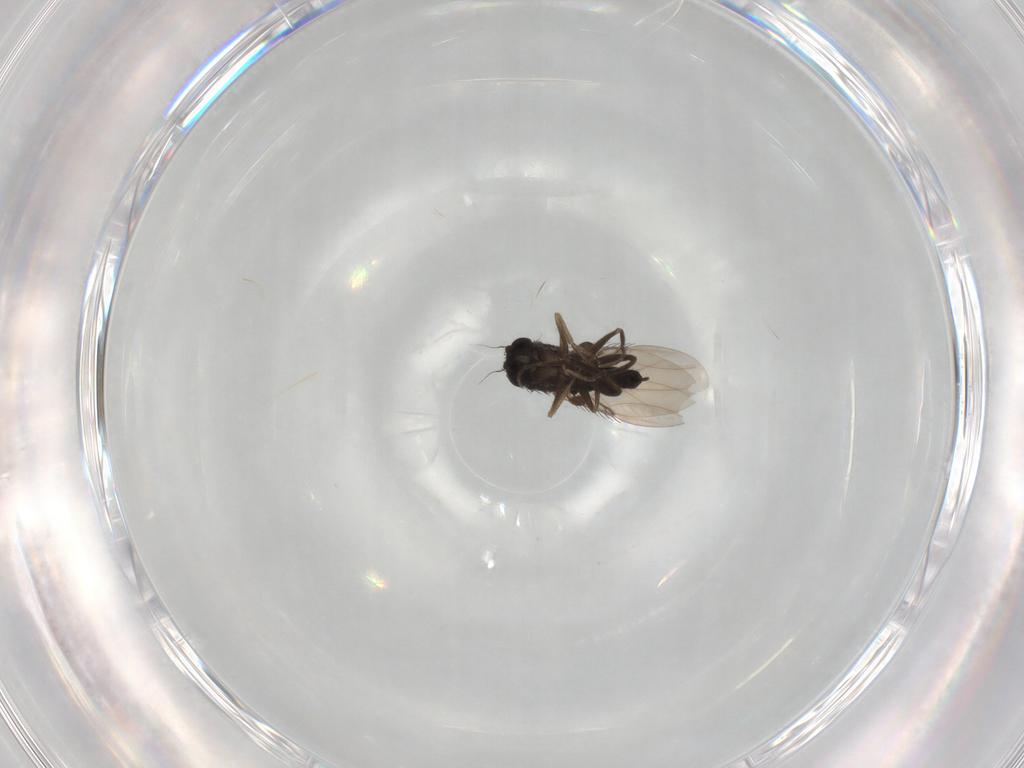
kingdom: Animalia
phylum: Arthropoda
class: Insecta
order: Diptera
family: Phoridae
